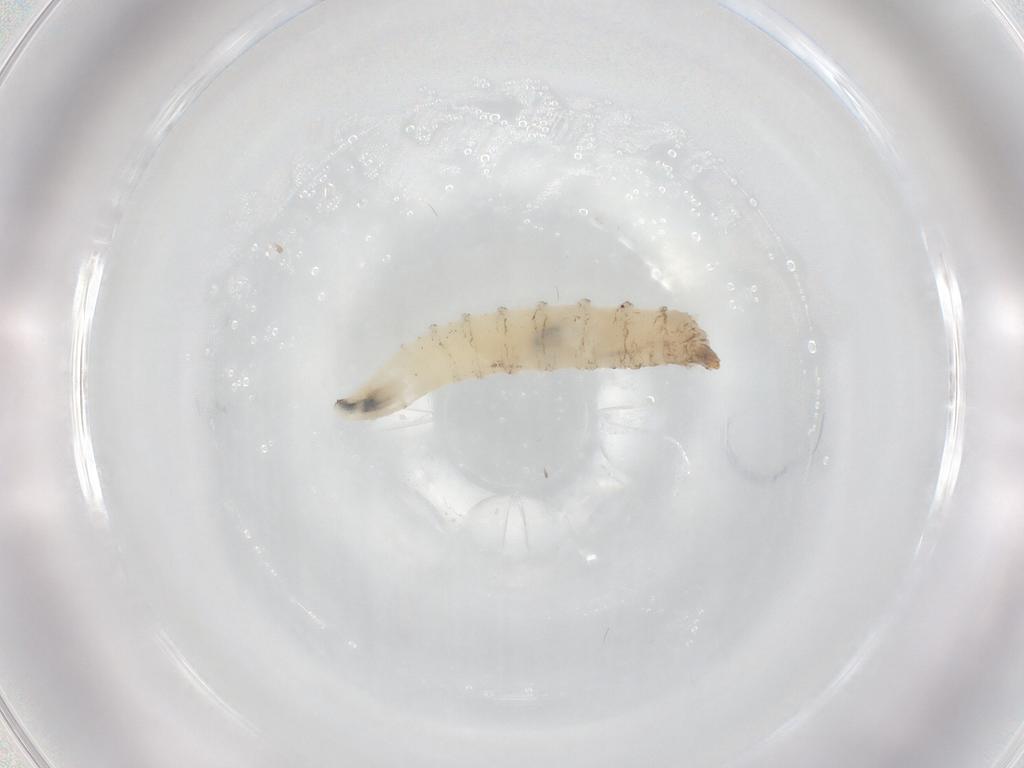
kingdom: Animalia
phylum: Arthropoda
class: Insecta
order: Diptera
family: Drosophilidae
